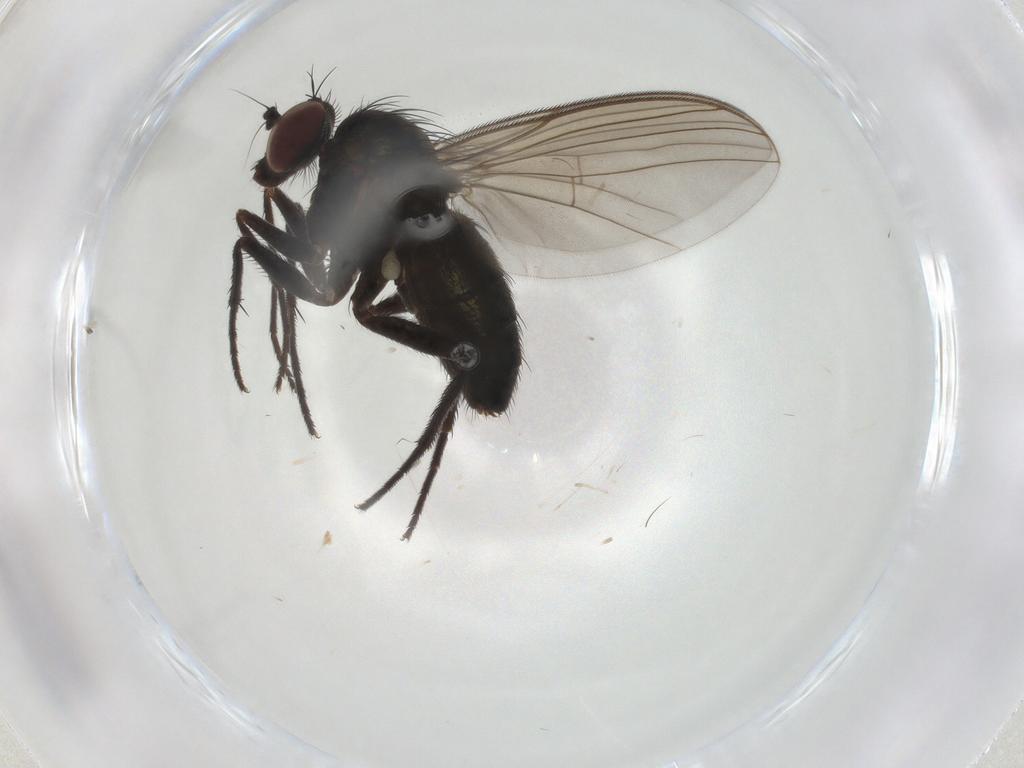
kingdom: Animalia
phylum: Arthropoda
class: Insecta
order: Diptera
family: Dolichopodidae
